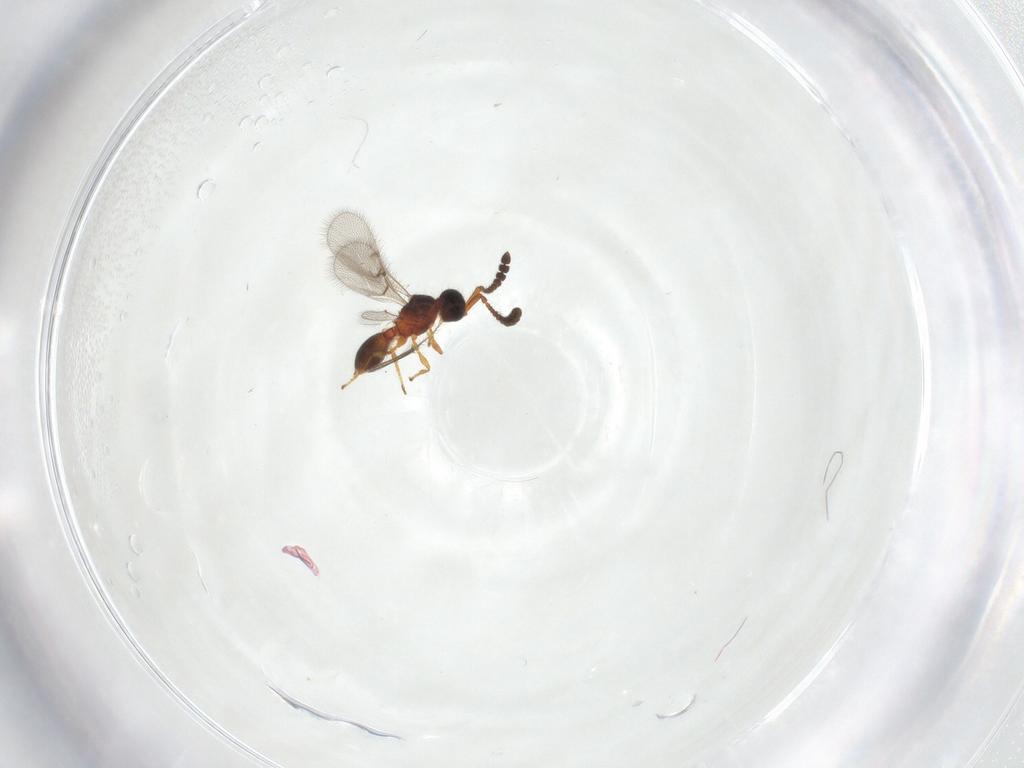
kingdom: Animalia
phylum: Arthropoda
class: Insecta
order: Hymenoptera
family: Diapriidae
